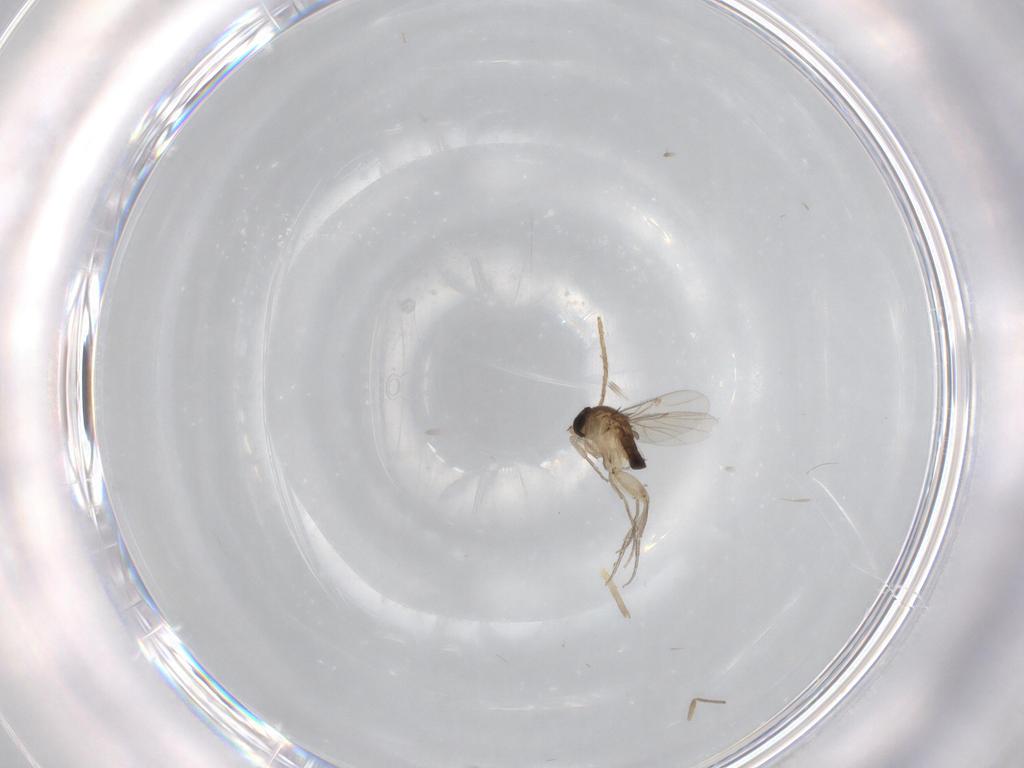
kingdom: Animalia
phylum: Arthropoda
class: Insecta
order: Diptera
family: Phoridae
